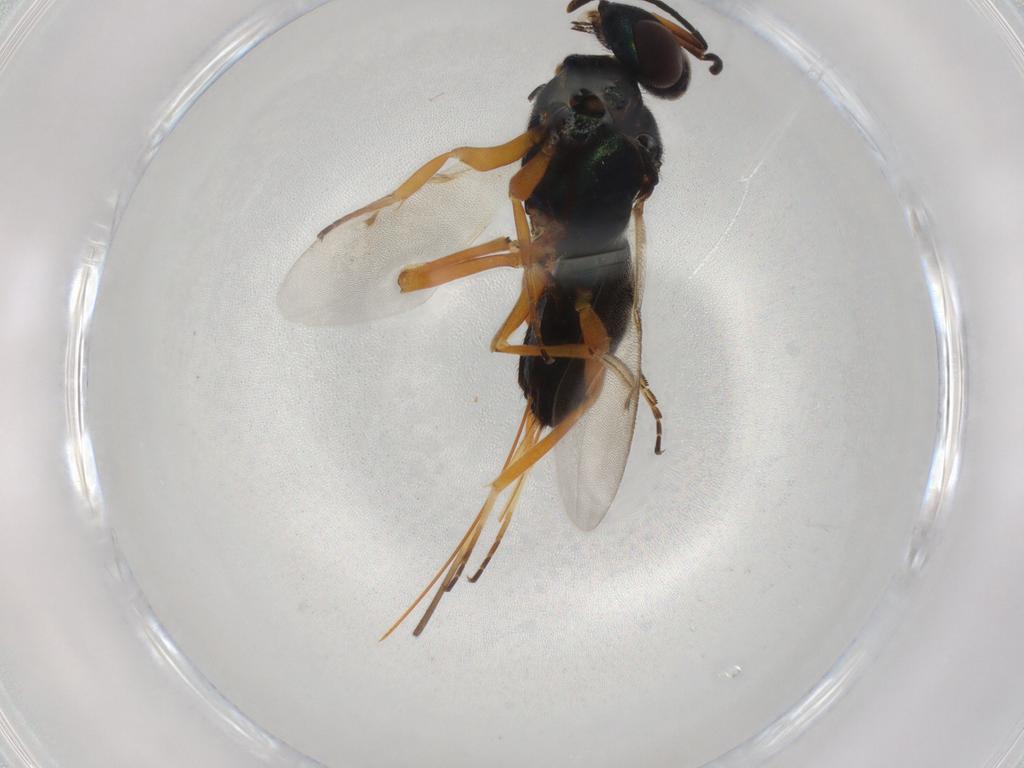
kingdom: Animalia
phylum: Arthropoda
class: Insecta
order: Hymenoptera
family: Eupelmidae
